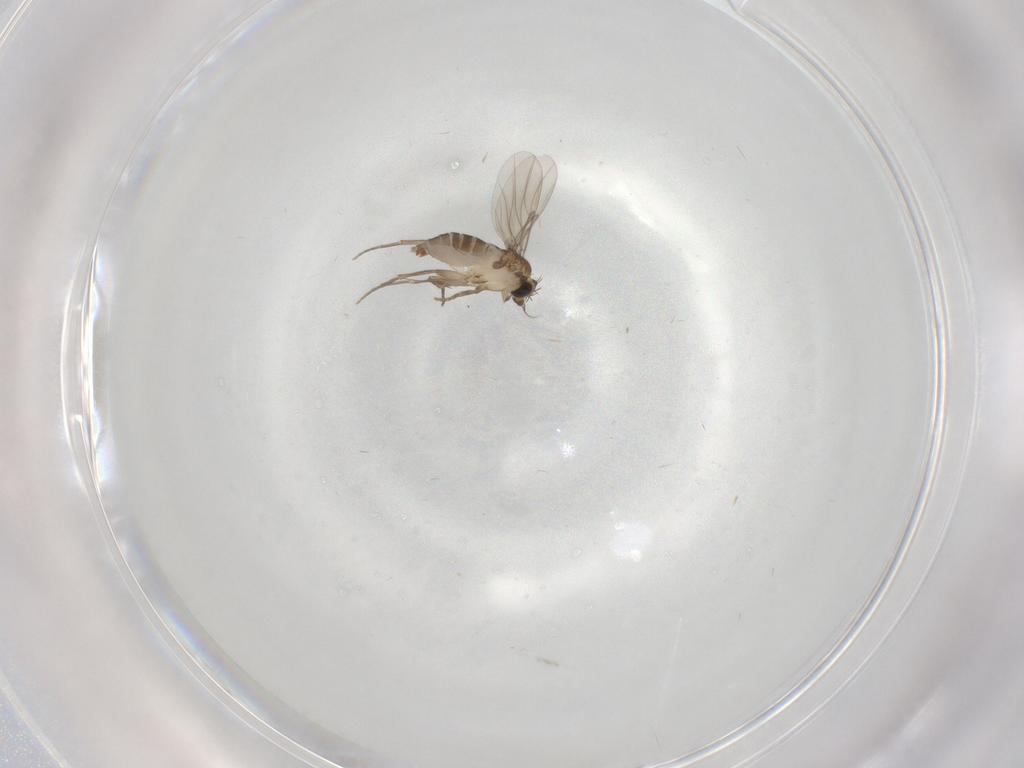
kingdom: Animalia
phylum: Arthropoda
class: Insecta
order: Diptera
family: Phoridae
